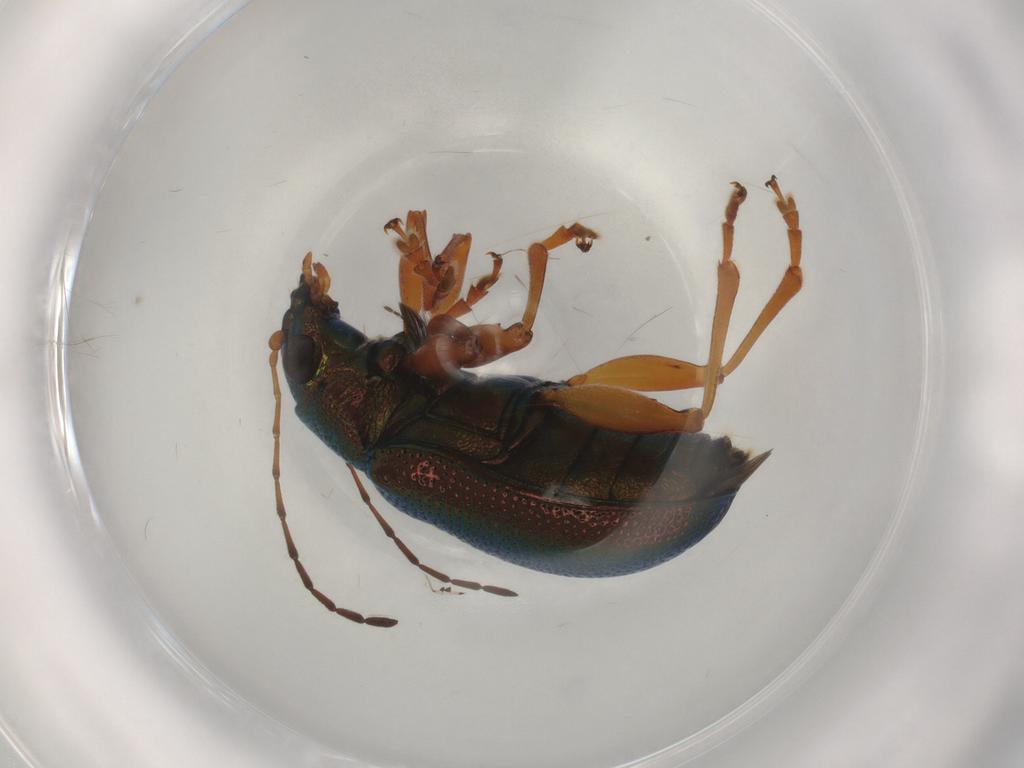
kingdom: Animalia
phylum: Arthropoda
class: Insecta
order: Coleoptera
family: Chrysomelidae
